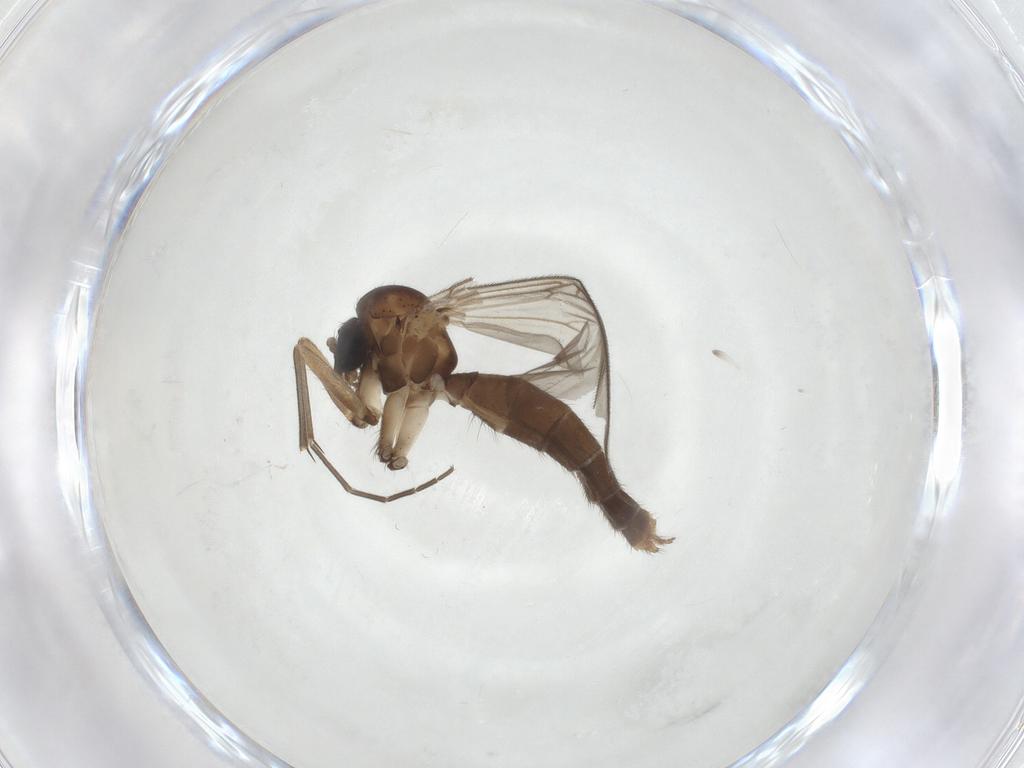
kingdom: Animalia
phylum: Arthropoda
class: Insecta
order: Diptera
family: Mycetophilidae
